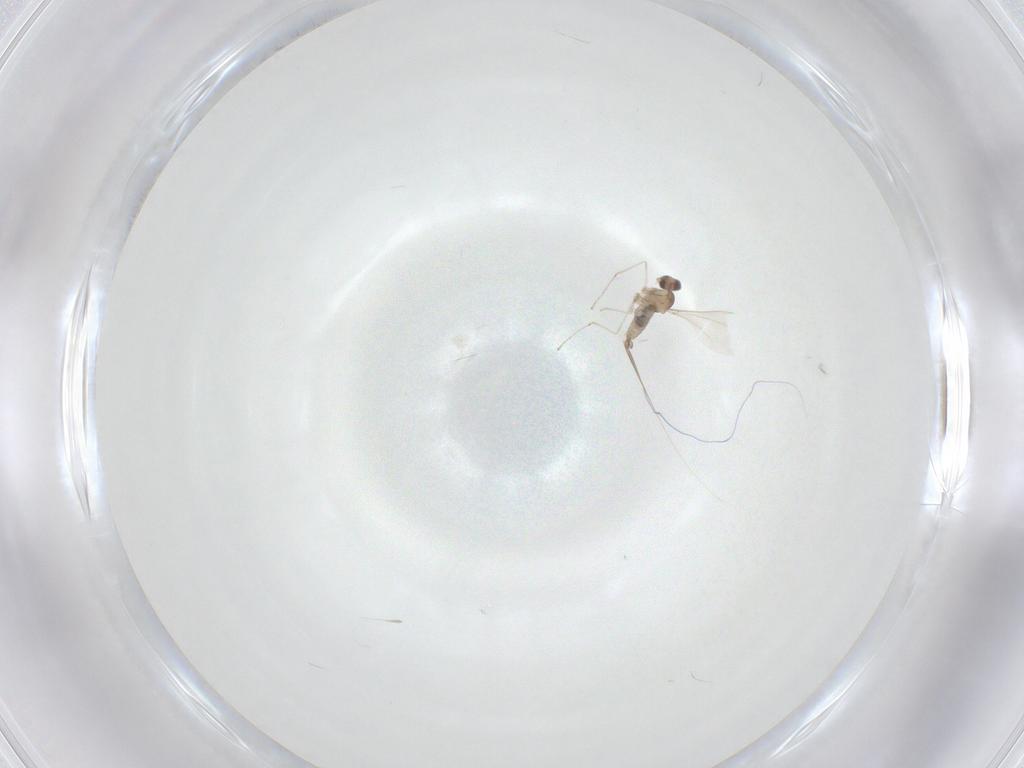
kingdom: Animalia
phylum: Arthropoda
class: Insecta
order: Diptera
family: Cecidomyiidae
